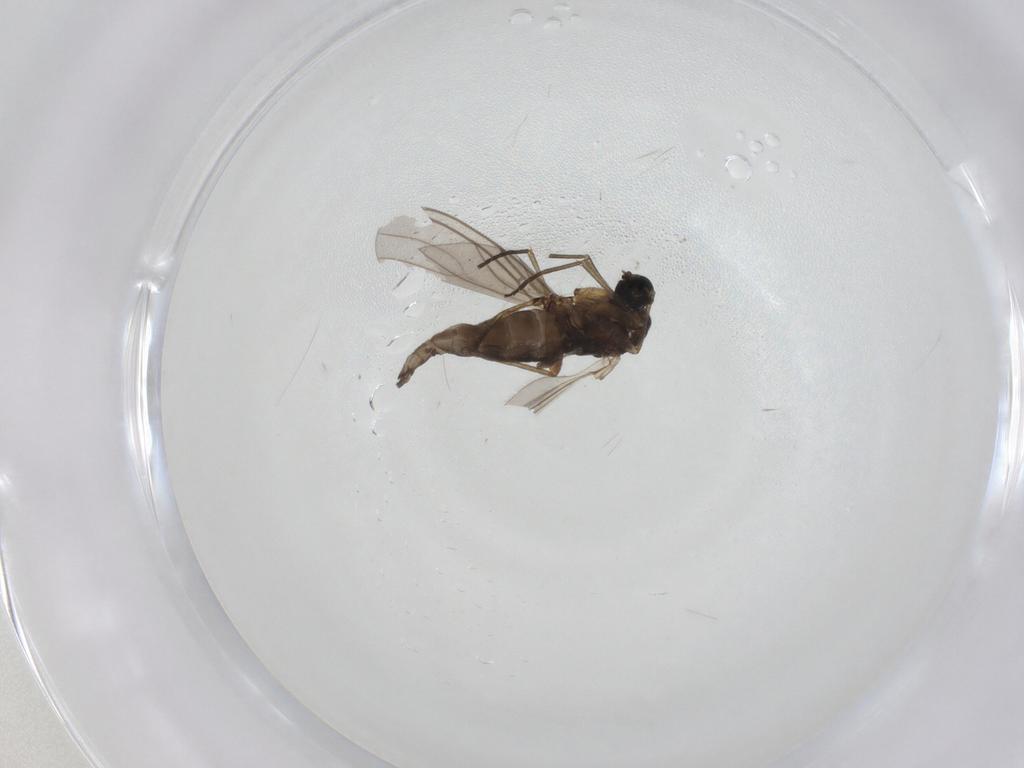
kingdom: Animalia
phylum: Arthropoda
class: Insecta
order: Diptera
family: Sciaridae
